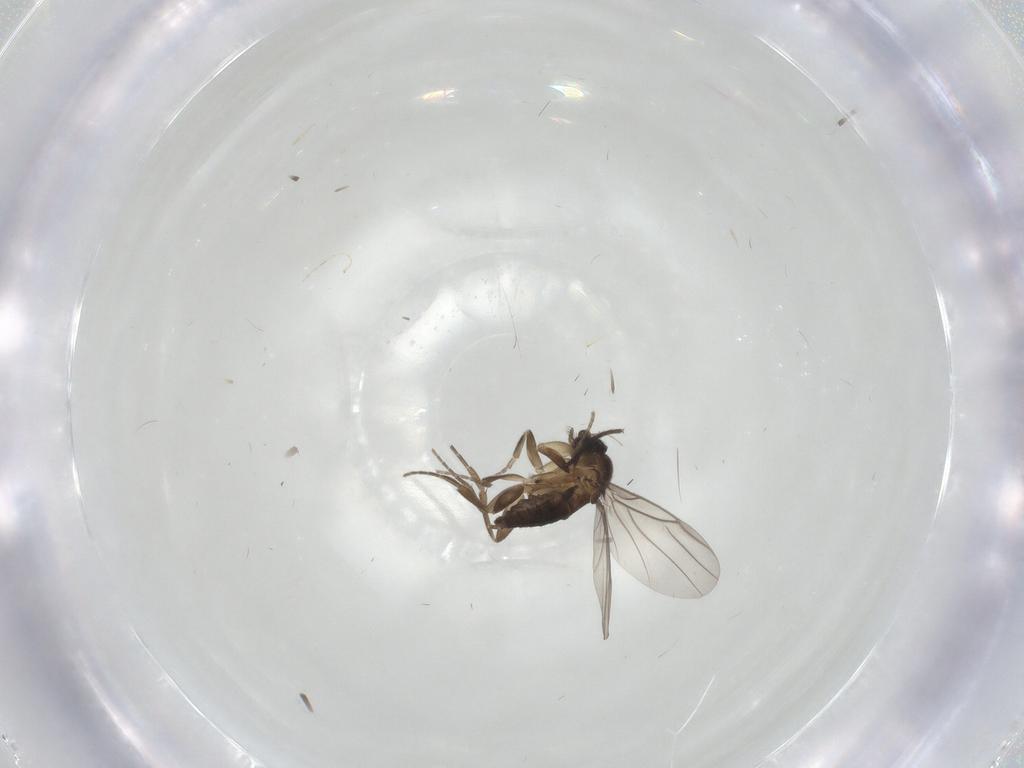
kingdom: Animalia
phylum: Arthropoda
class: Insecta
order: Diptera
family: Phoridae
